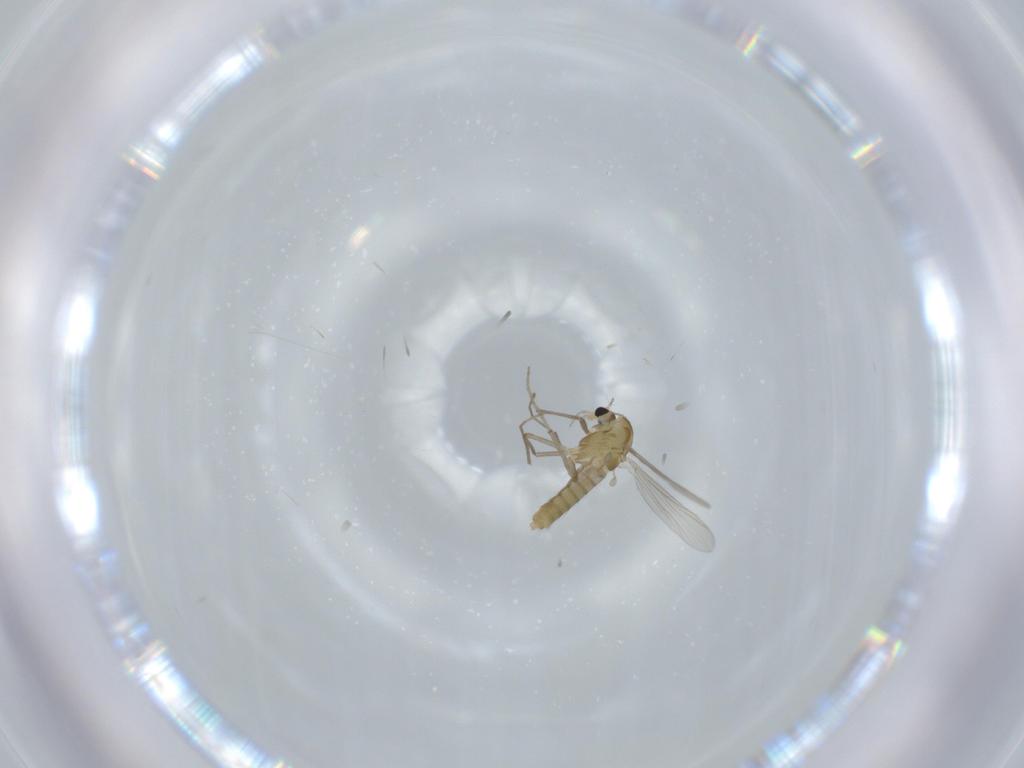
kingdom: Animalia
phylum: Arthropoda
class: Insecta
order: Diptera
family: Chironomidae
